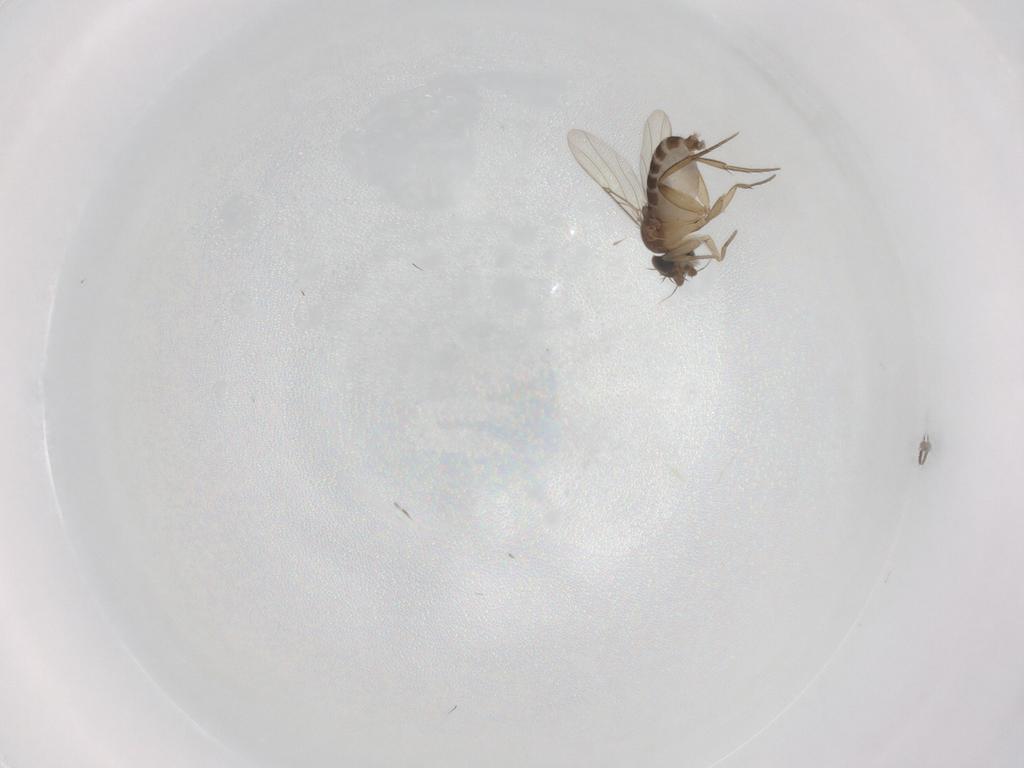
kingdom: Animalia
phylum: Arthropoda
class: Insecta
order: Diptera
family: Phoridae
